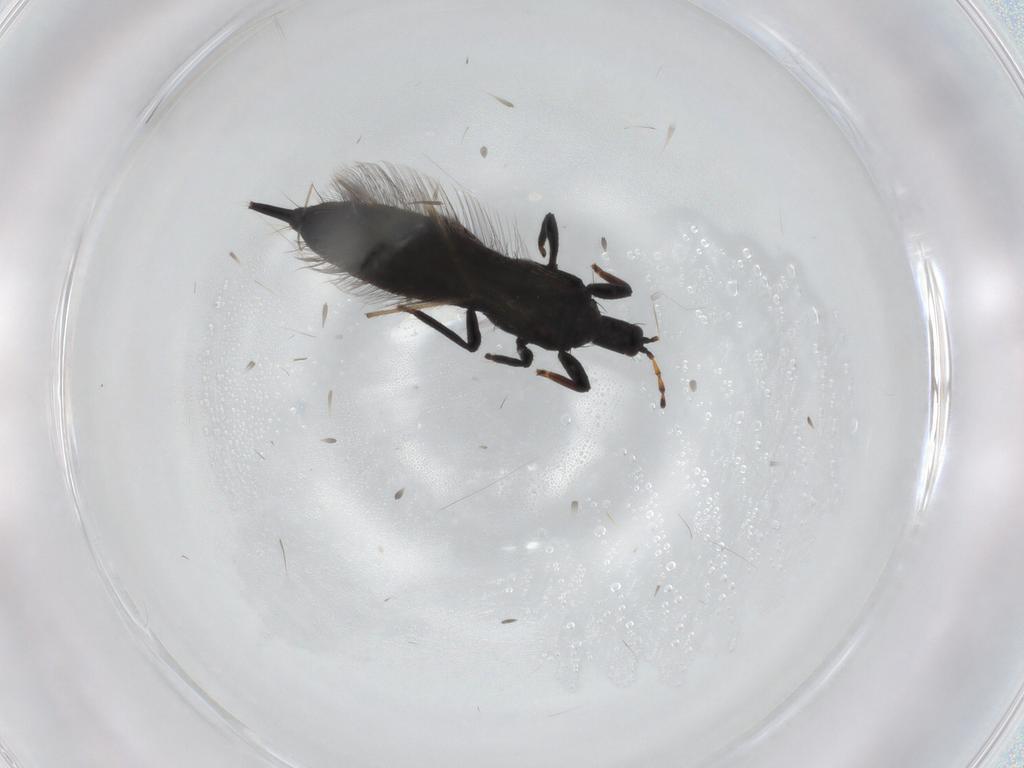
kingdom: Animalia
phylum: Arthropoda
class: Insecta
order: Thysanoptera
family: Phlaeothripidae
